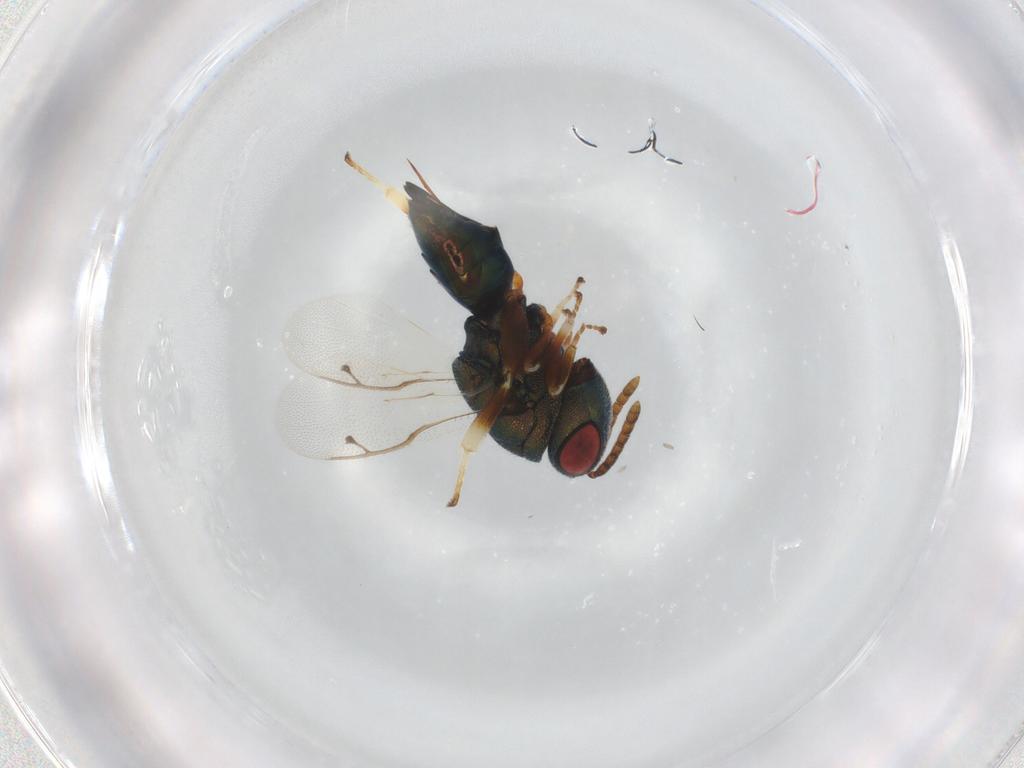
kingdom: Animalia
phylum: Arthropoda
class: Insecta
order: Hymenoptera
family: Pteromalidae
